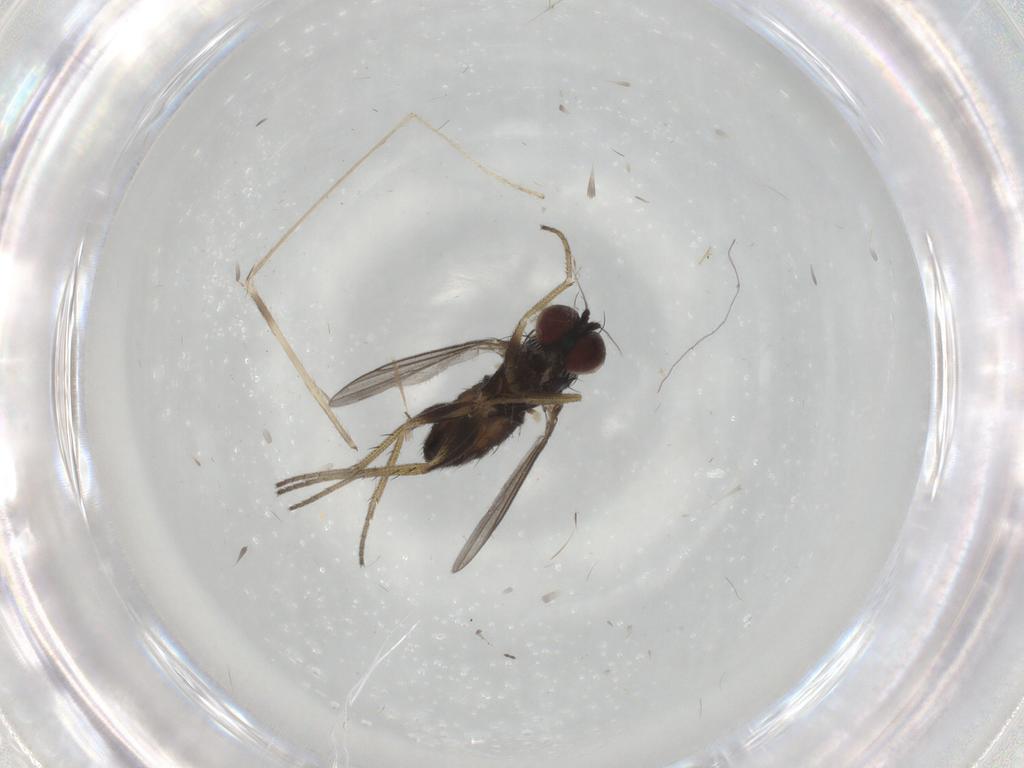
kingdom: Animalia
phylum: Arthropoda
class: Insecta
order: Diptera
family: Dolichopodidae
